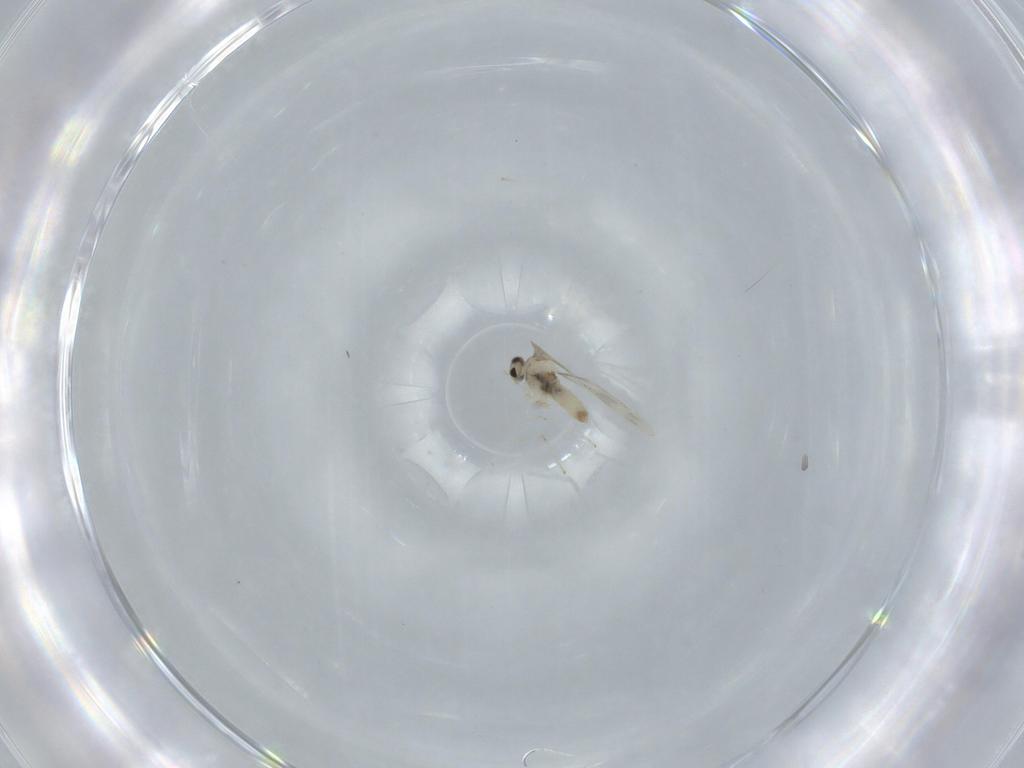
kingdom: Animalia
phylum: Arthropoda
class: Insecta
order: Diptera
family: Cecidomyiidae
